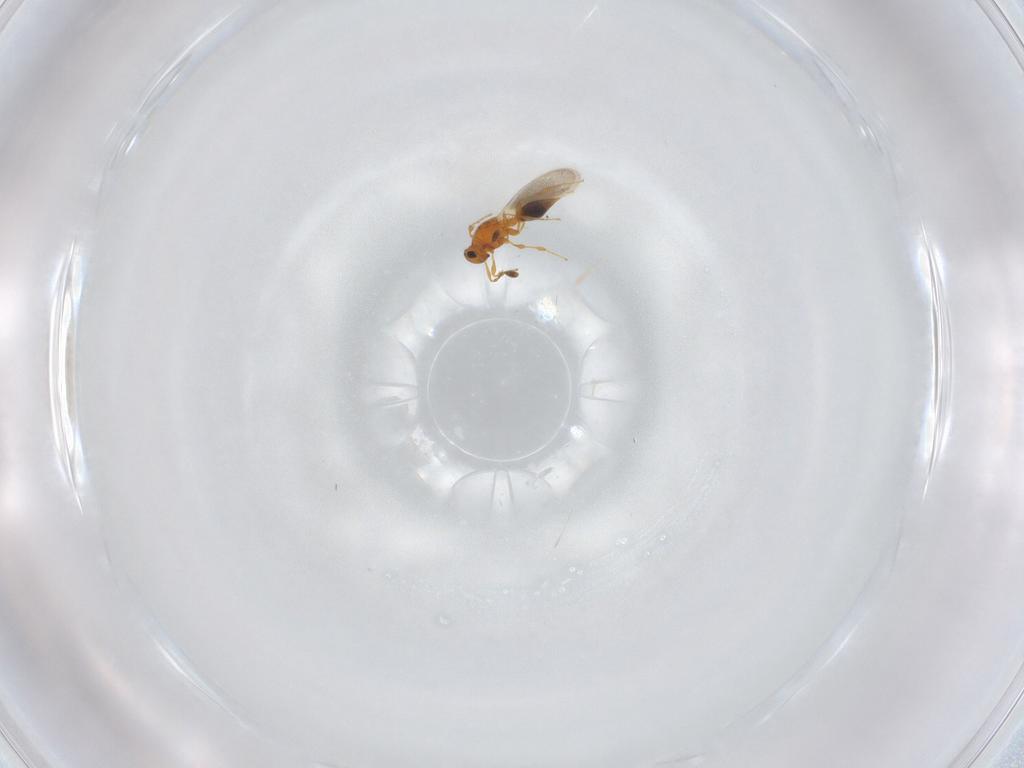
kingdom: Animalia
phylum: Arthropoda
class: Insecta
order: Hymenoptera
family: Platygastridae
